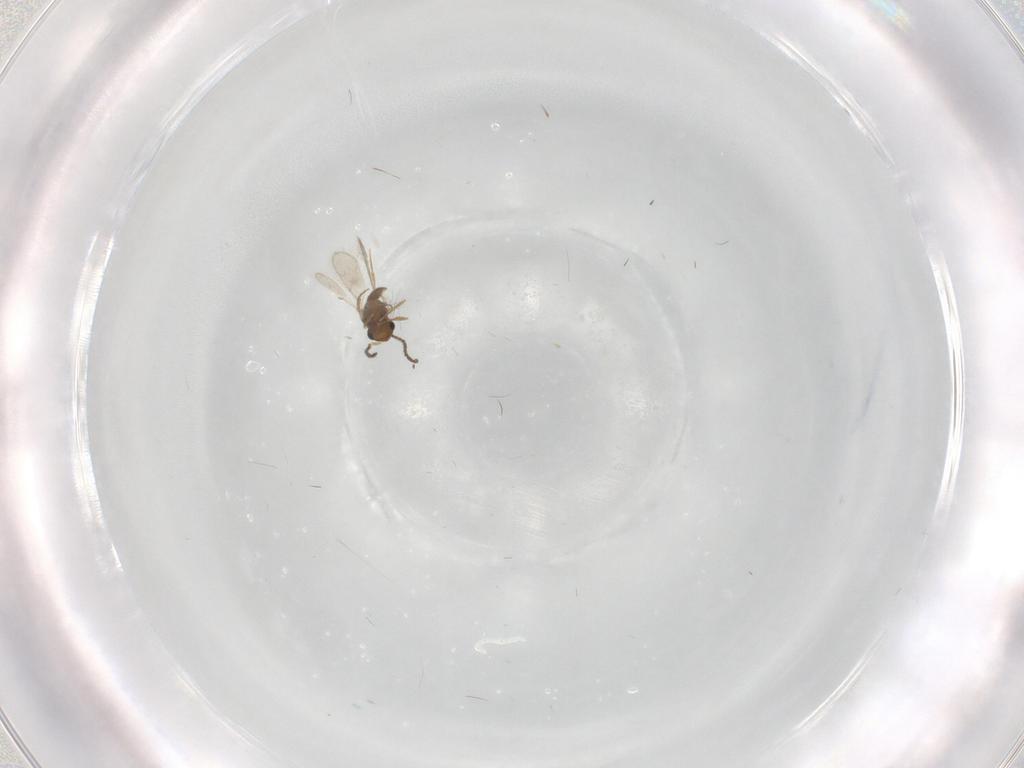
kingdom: Animalia
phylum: Arthropoda
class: Insecta
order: Hymenoptera
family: Scelionidae
